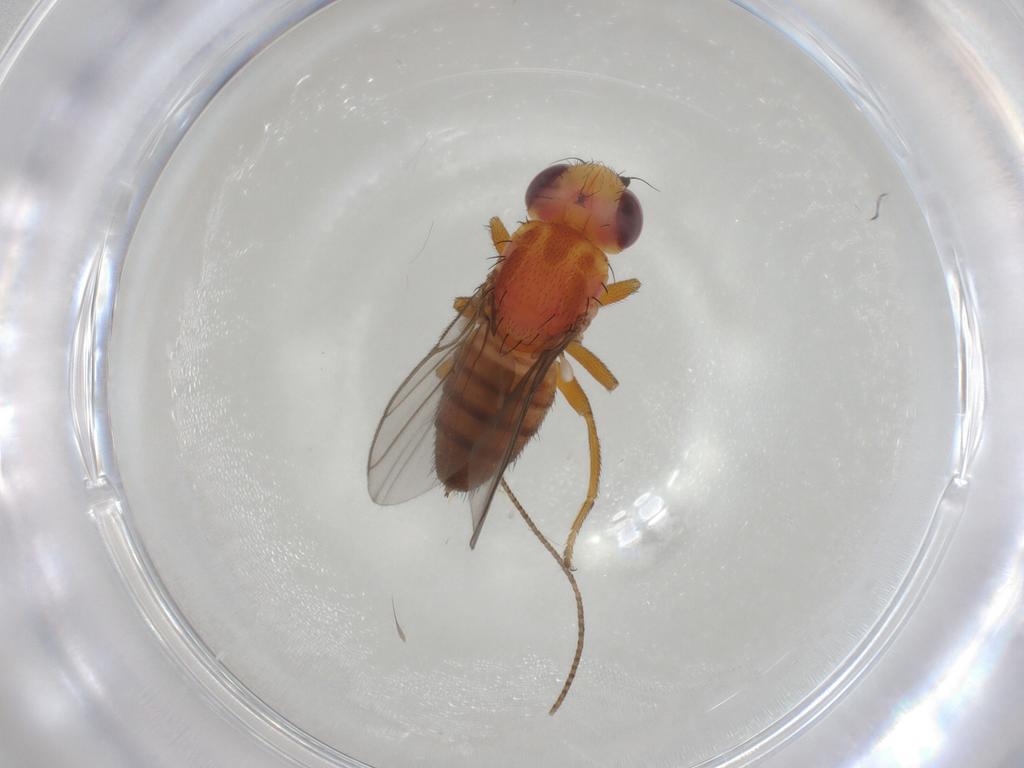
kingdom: Animalia
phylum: Arthropoda
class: Insecta
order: Diptera
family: Chloropidae
